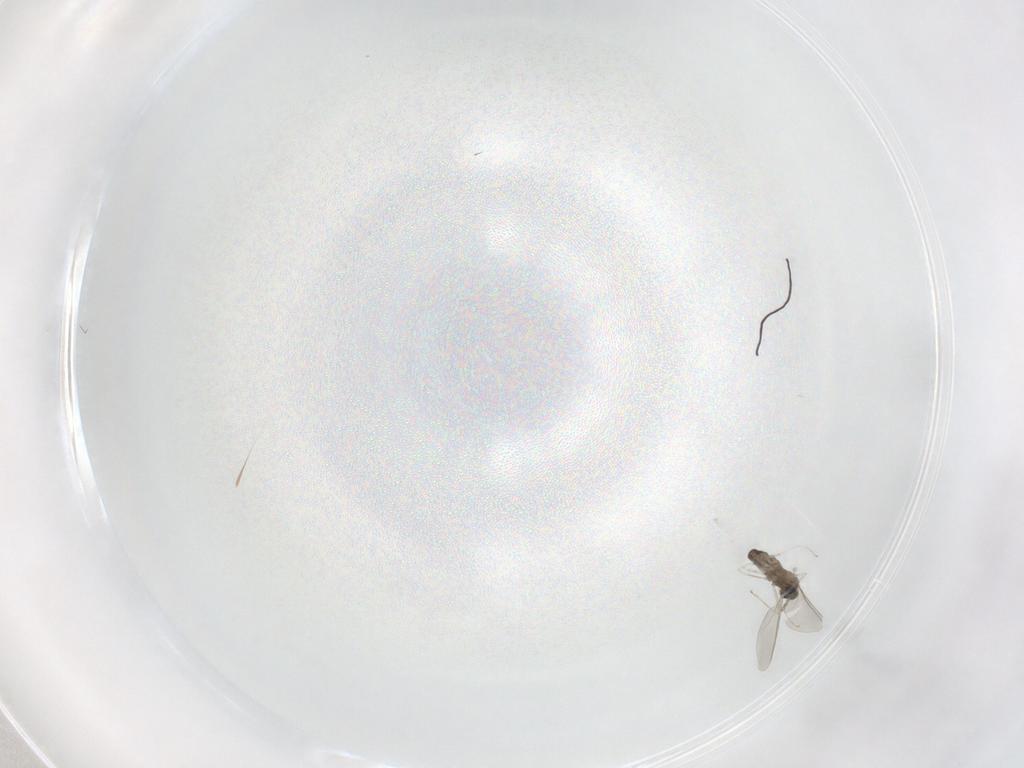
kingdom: Animalia
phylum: Arthropoda
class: Insecta
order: Diptera
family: Cecidomyiidae
